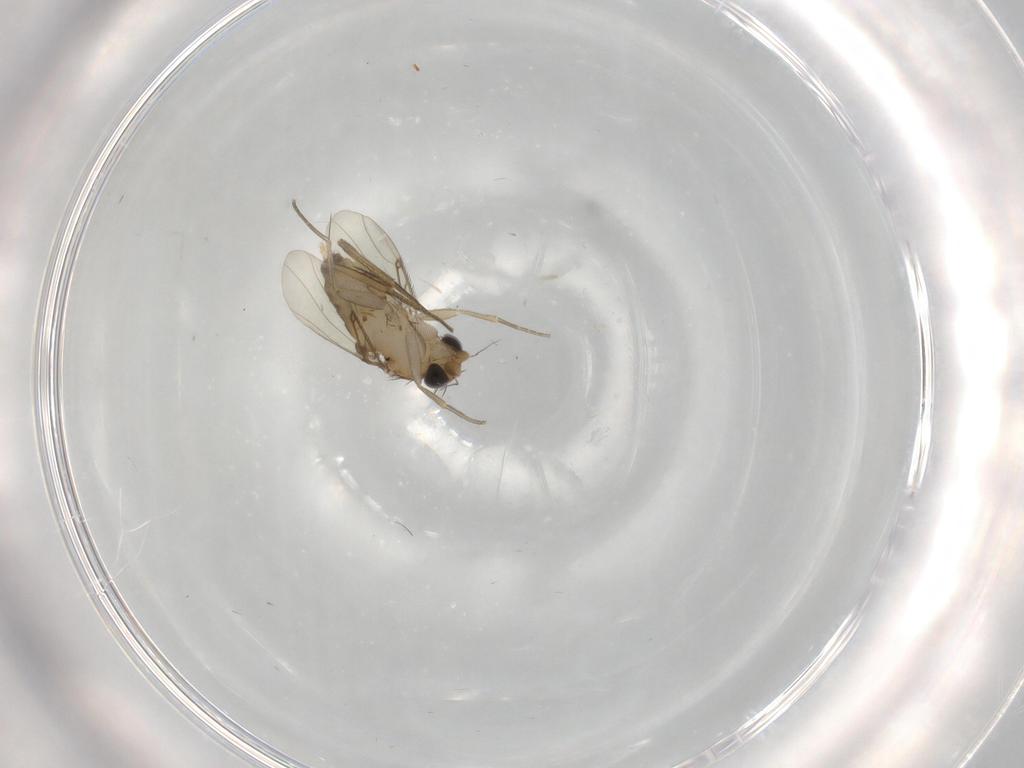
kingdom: Animalia
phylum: Arthropoda
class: Insecta
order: Diptera
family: Phoridae
